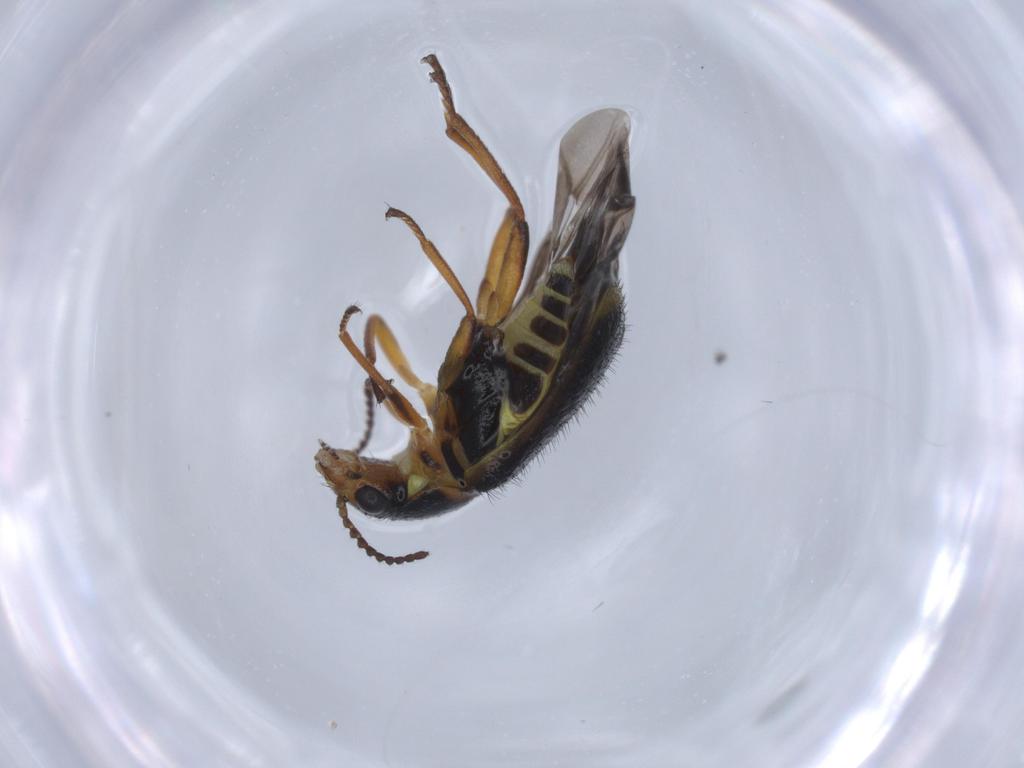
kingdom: Animalia
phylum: Arthropoda
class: Insecta
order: Coleoptera
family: Melyridae
